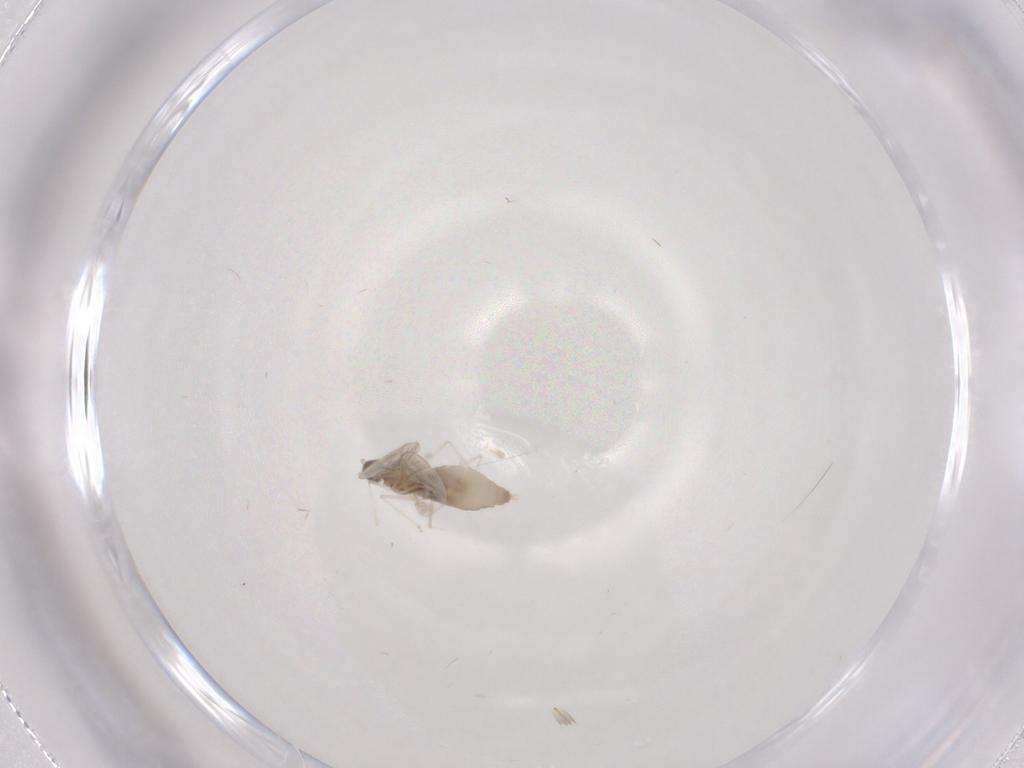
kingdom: Animalia
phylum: Arthropoda
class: Insecta
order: Diptera
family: Cecidomyiidae
